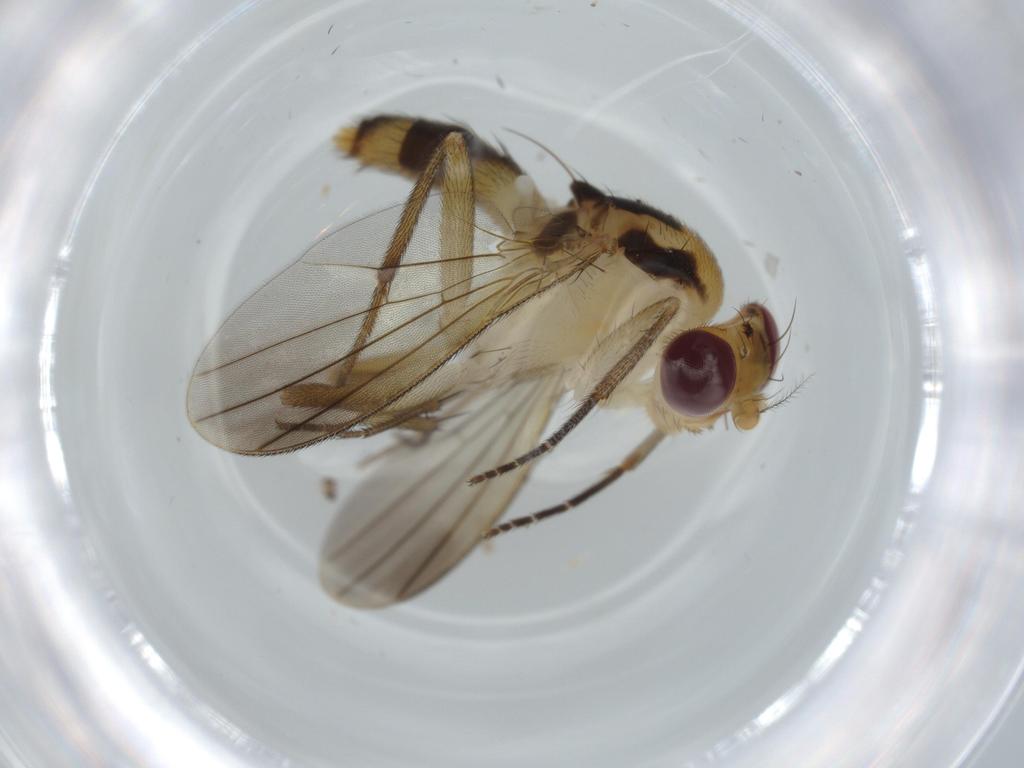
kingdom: Animalia
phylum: Arthropoda
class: Insecta
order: Diptera
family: Clusiidae
